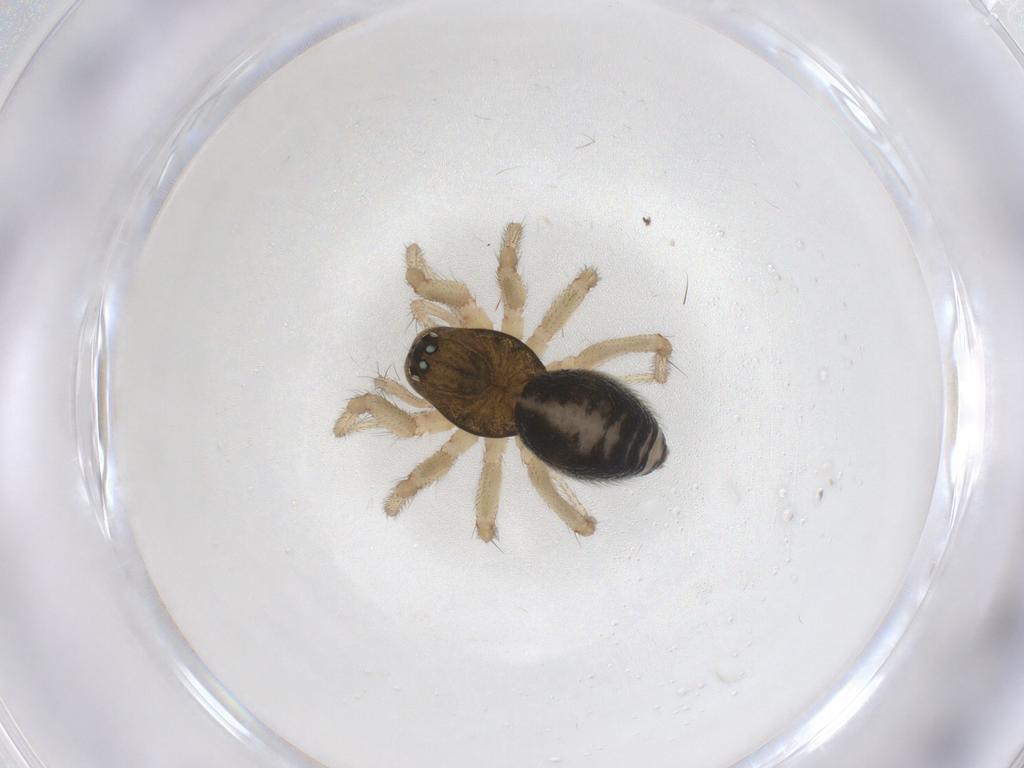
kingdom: Animalia
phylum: Arthropoda
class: Arachnida
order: Araneae
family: Linyphiidae
